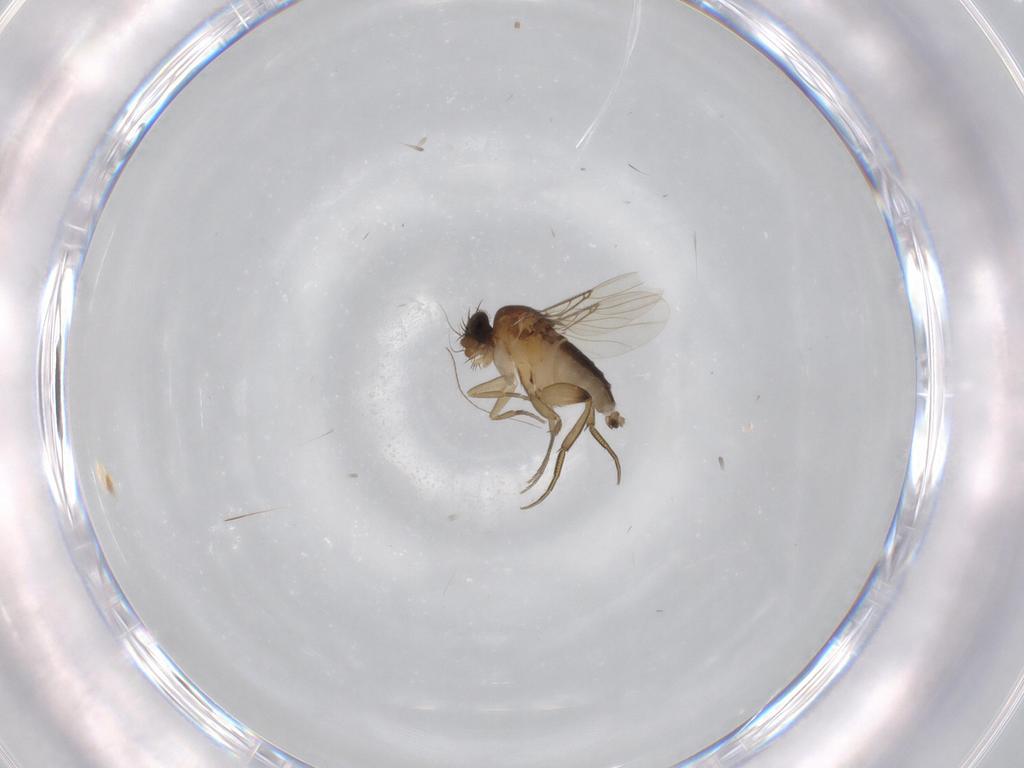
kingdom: Animalia
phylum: Arthropoda
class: Insecta
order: Diptera
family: Phoridae
